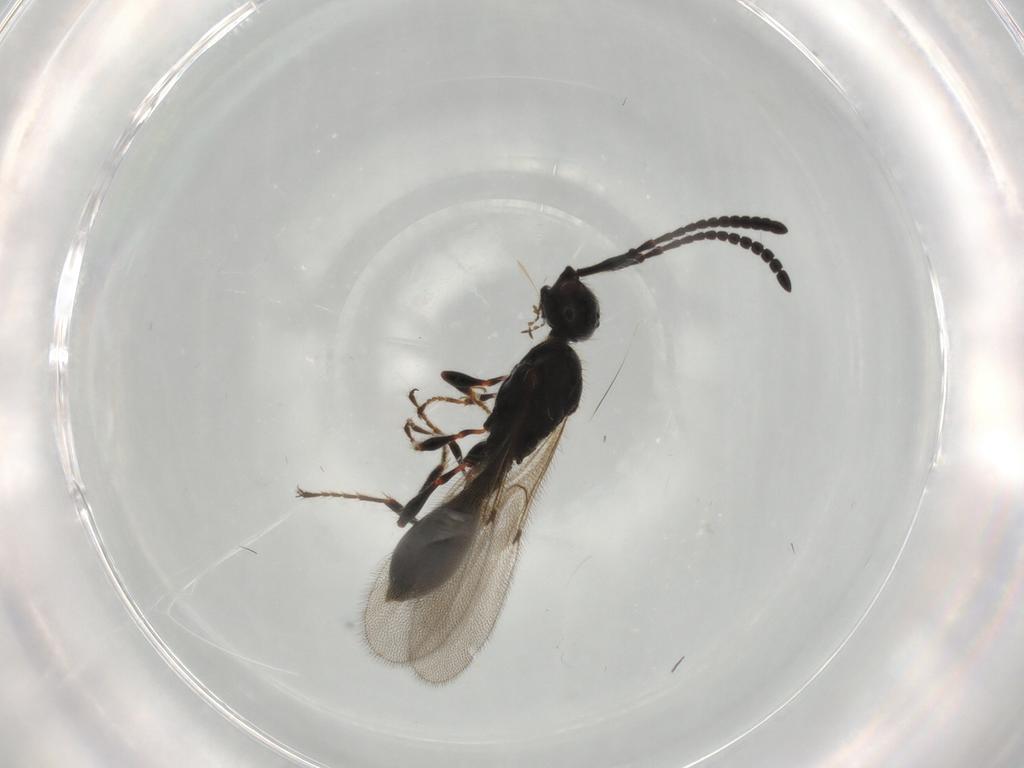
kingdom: Animalia
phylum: Arthropoda
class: Insecta
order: Hymenoptera
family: Diapriidae
